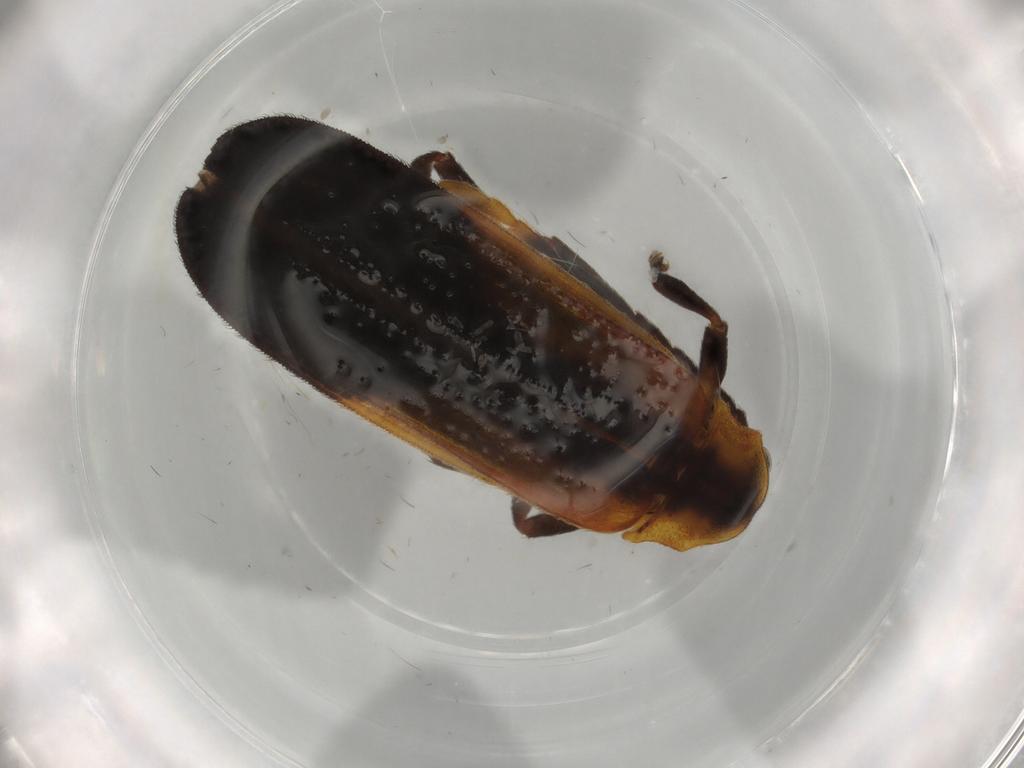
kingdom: Animalia
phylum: Arthropoda
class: Insecta
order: Coleoptera
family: Lycidae
